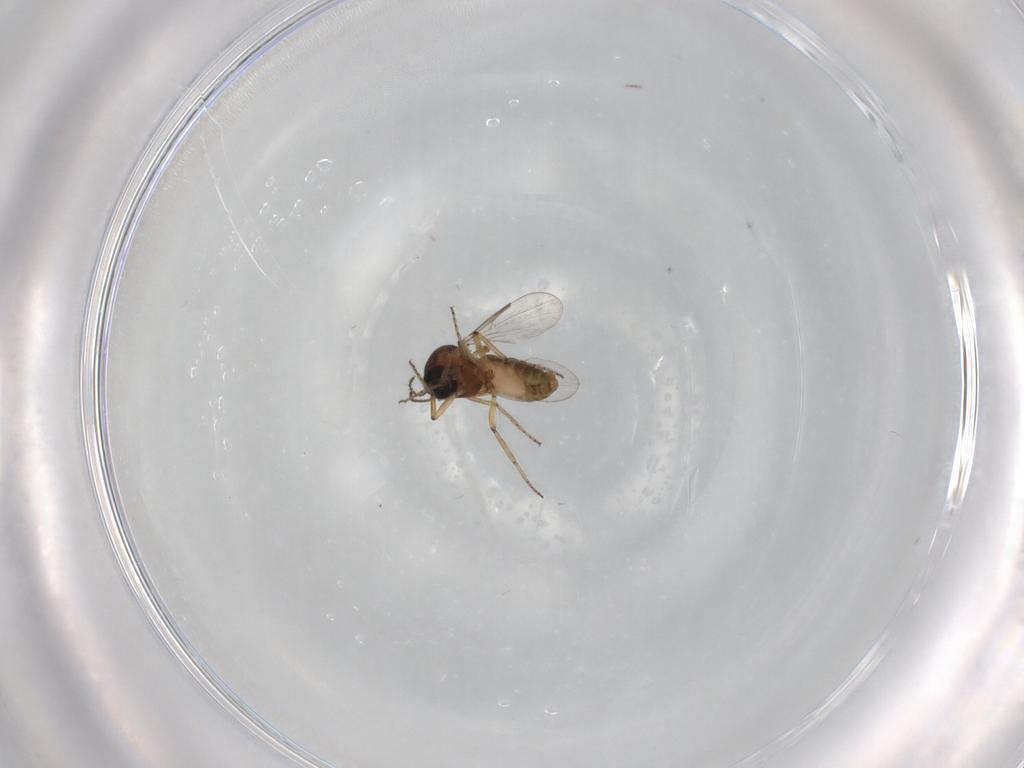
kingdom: Animalia
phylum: Arthropoda
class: Insecta
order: Diptera
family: Ceratopogonidae
